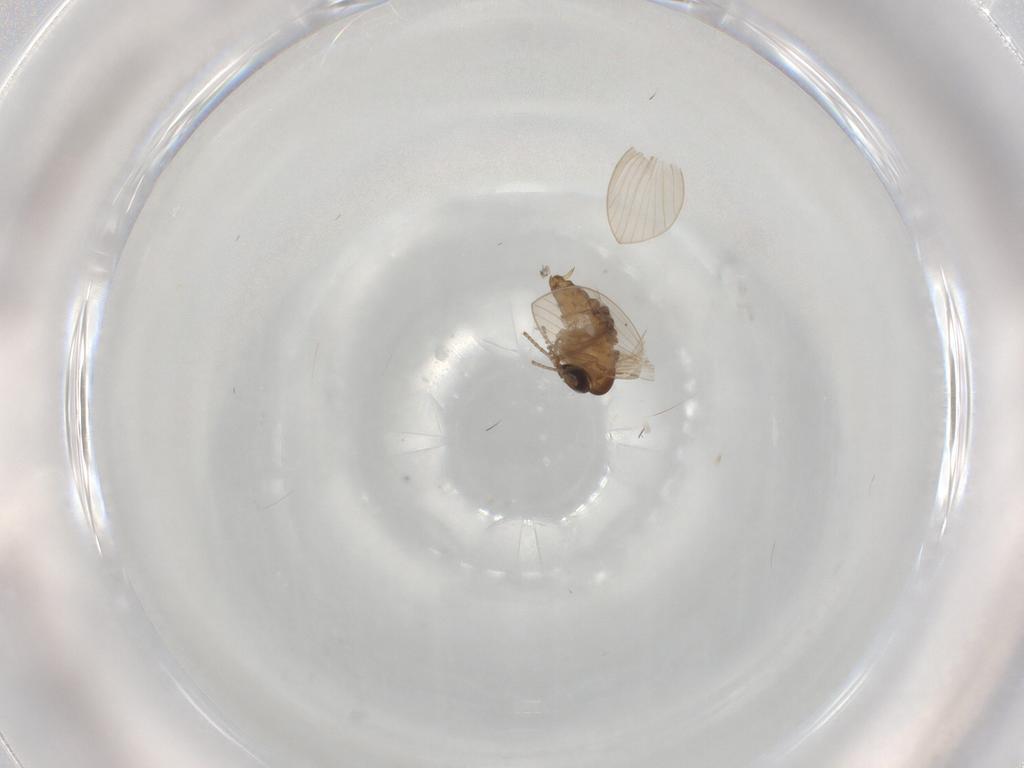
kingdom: Animalia
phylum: Arthropoda
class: Insecta
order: Diptera
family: Psychodidae
